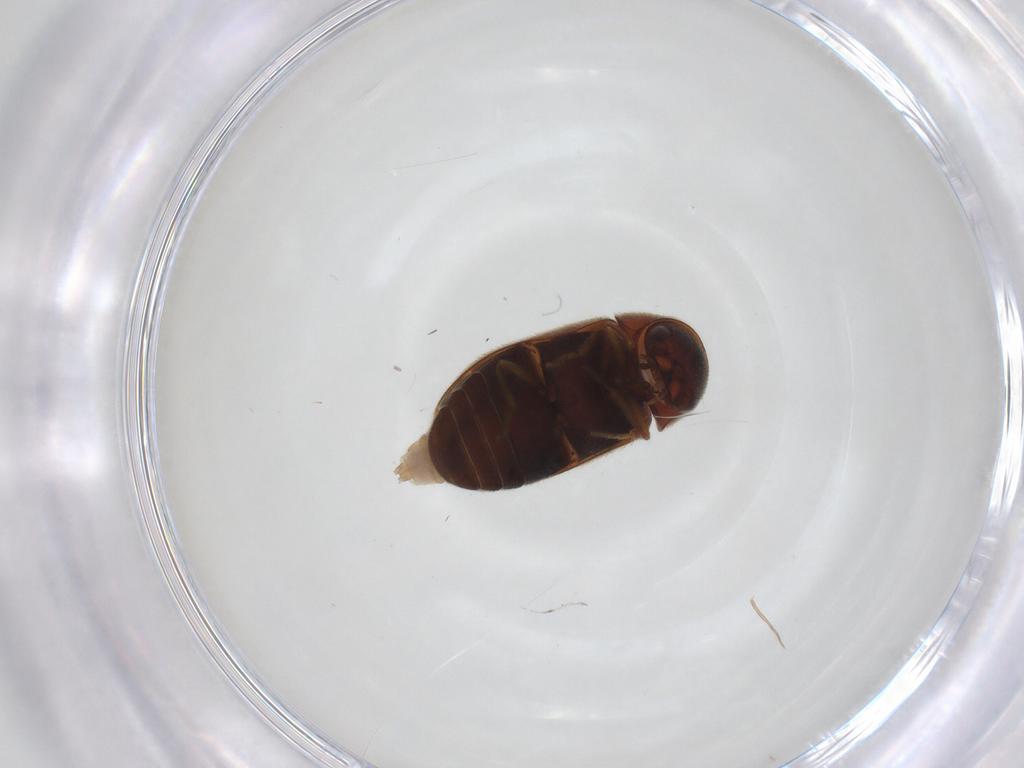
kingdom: Animalia
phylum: Arthropoda
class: Insecta
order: Coleoptera
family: Ptinidae
